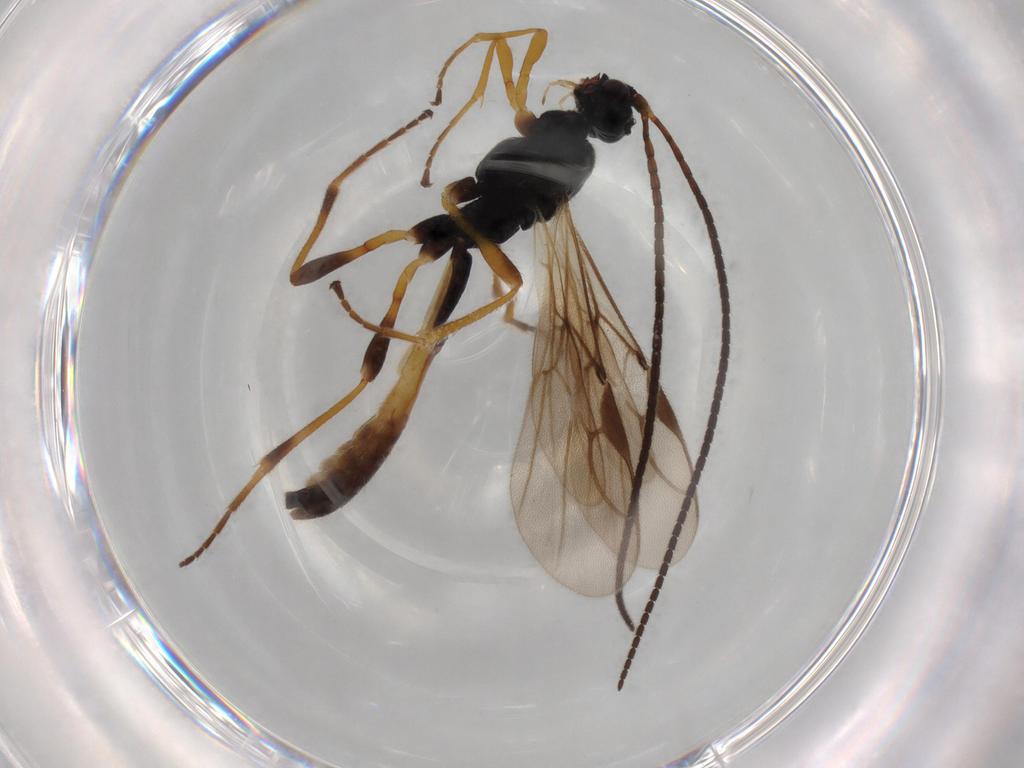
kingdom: Animalia
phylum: Arthropoda
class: Insecta
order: Hymenoptera
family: Braconidae
